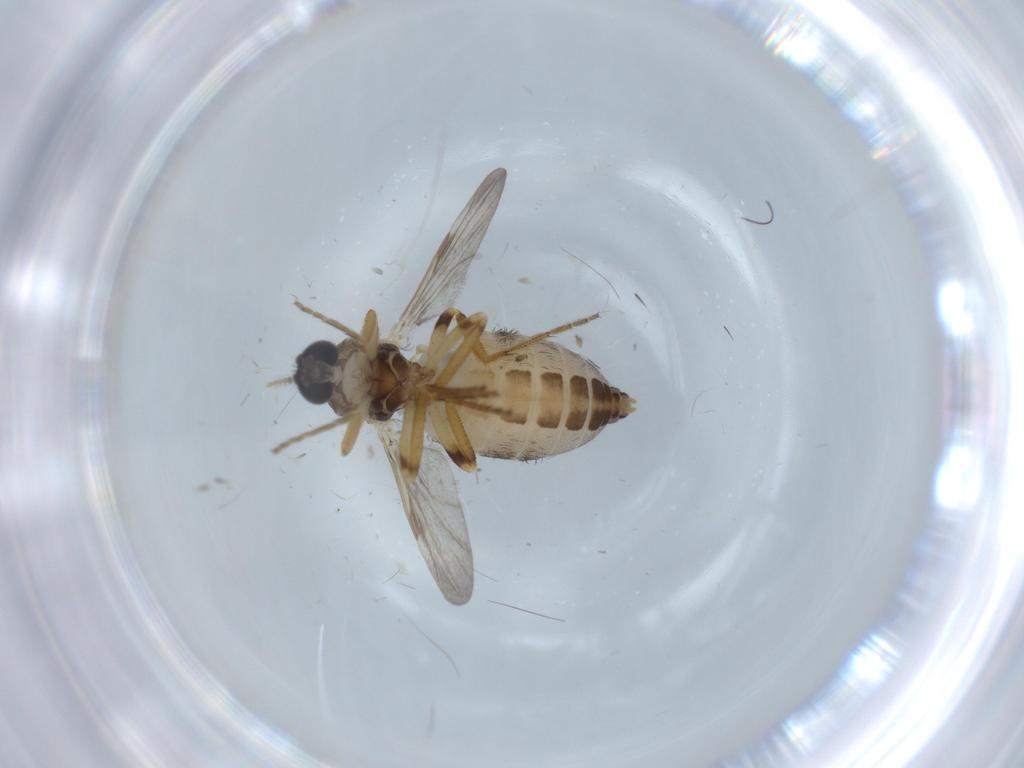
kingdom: Animalia
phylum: Arthropoda
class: Insecta
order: Diptera
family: Ceratopogonidae
